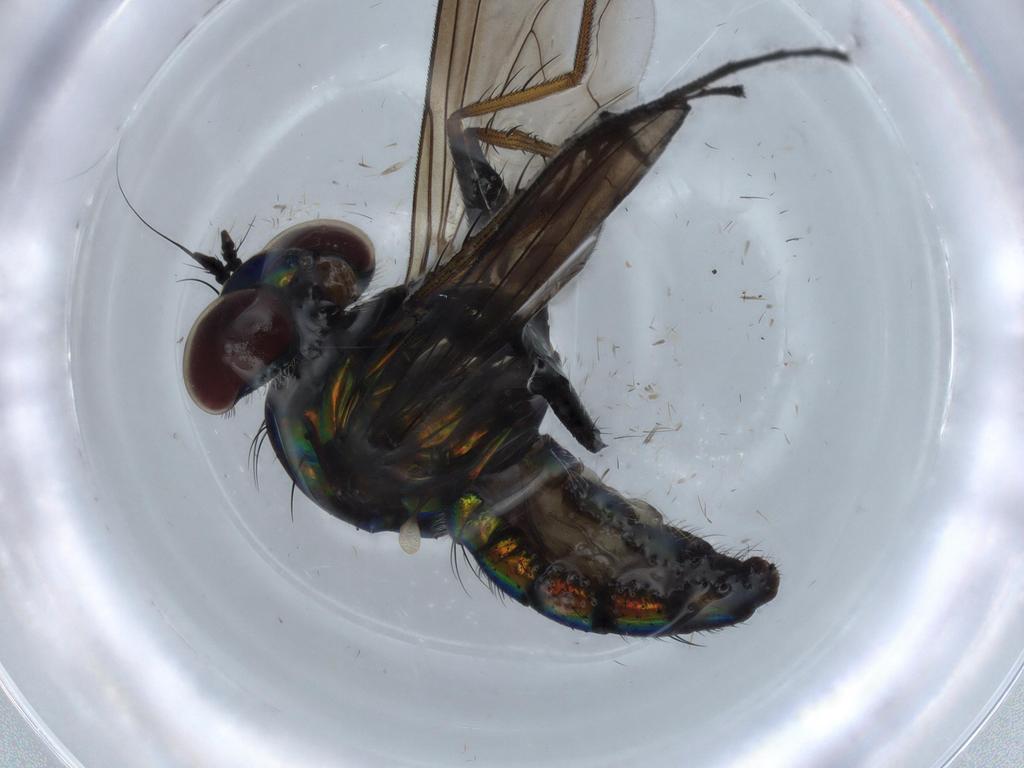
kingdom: Animalia
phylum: Arthropoda
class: Insecta
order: Diptera
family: Dolichopodidae
